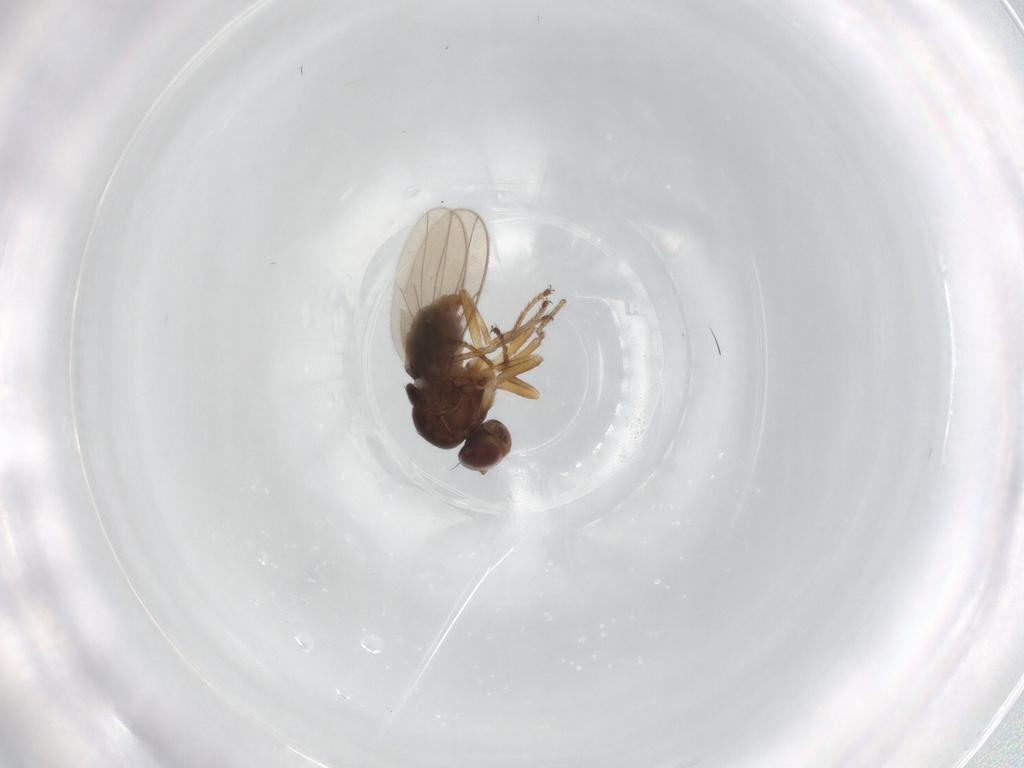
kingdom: Animalia
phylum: Arthropoda
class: Insecta
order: Diptera
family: Ephydridae
